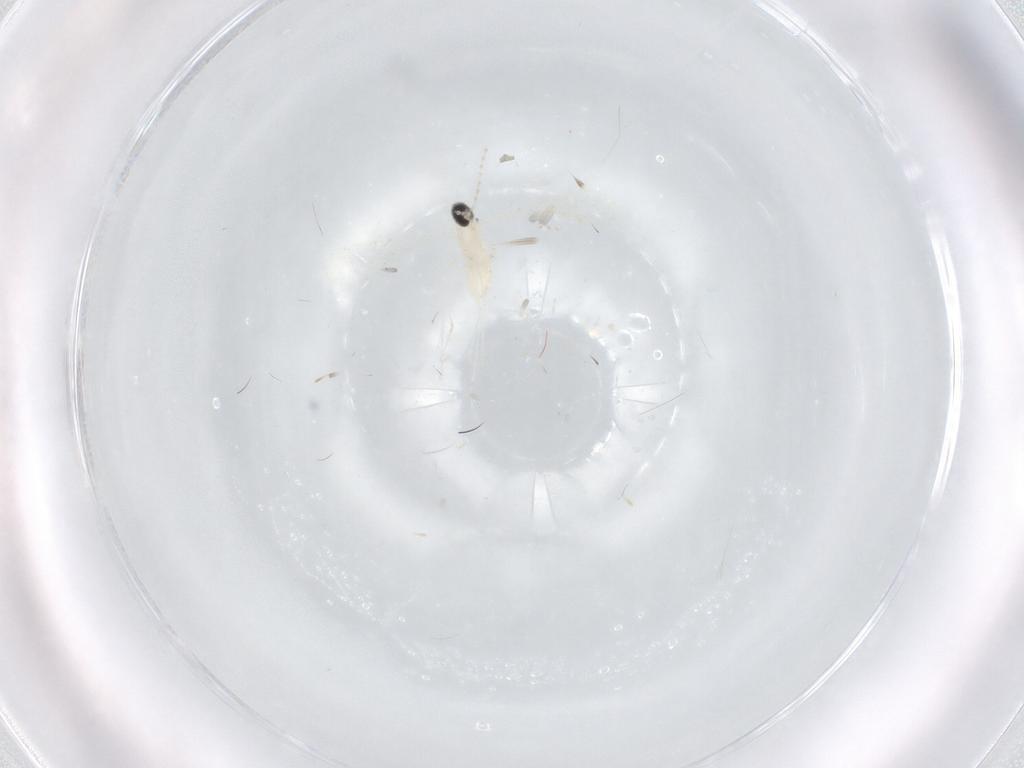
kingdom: Animalia
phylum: Arthropoda
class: Insecta
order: Diptera
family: Cecidomyiidae
